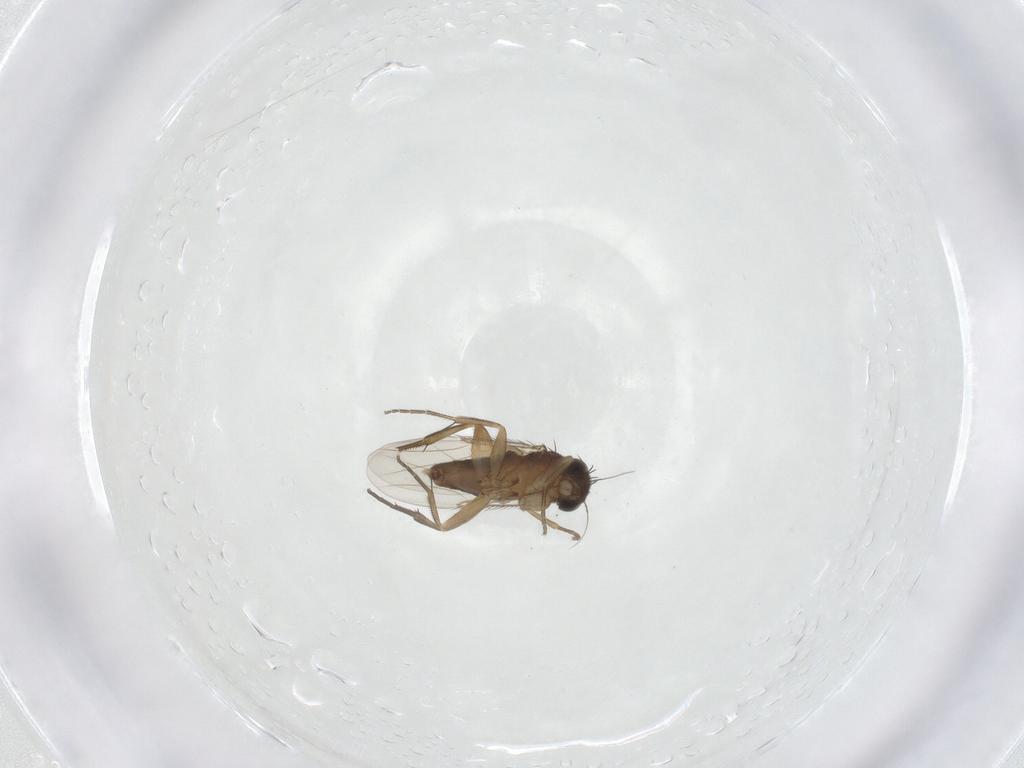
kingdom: Animalia
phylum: Arthropoda
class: Insecta
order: Diptera
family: Phoridae
